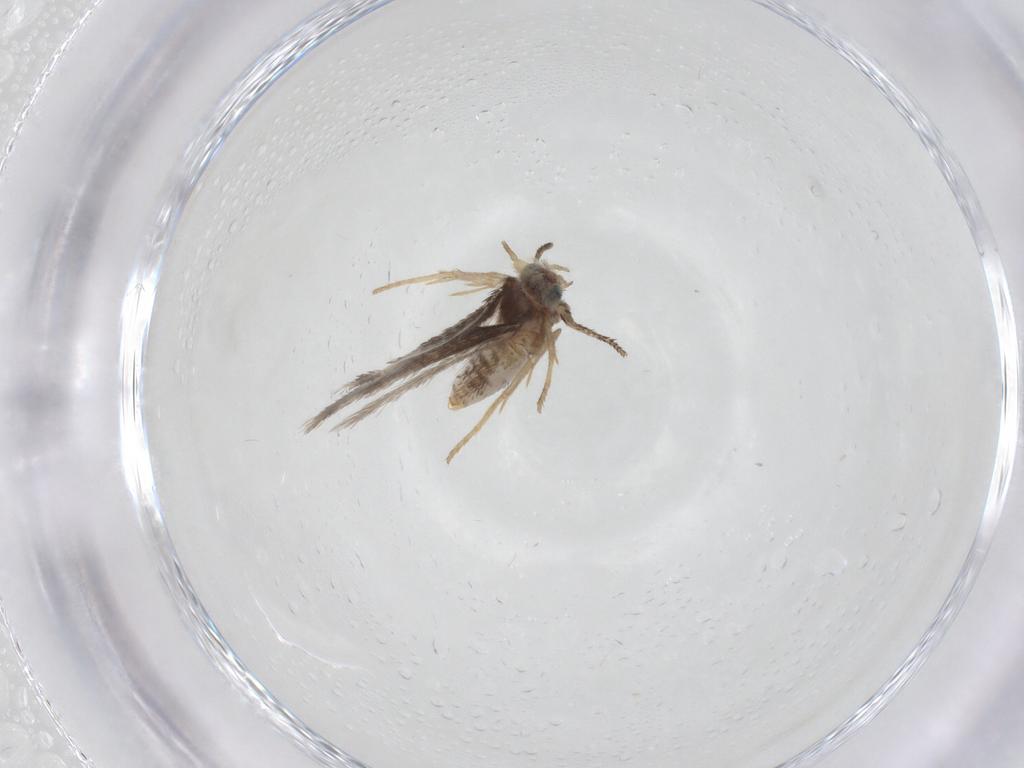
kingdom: Animalia
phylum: Arthropoda
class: Insecta
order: Lepidoptera
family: Nepticulidae
